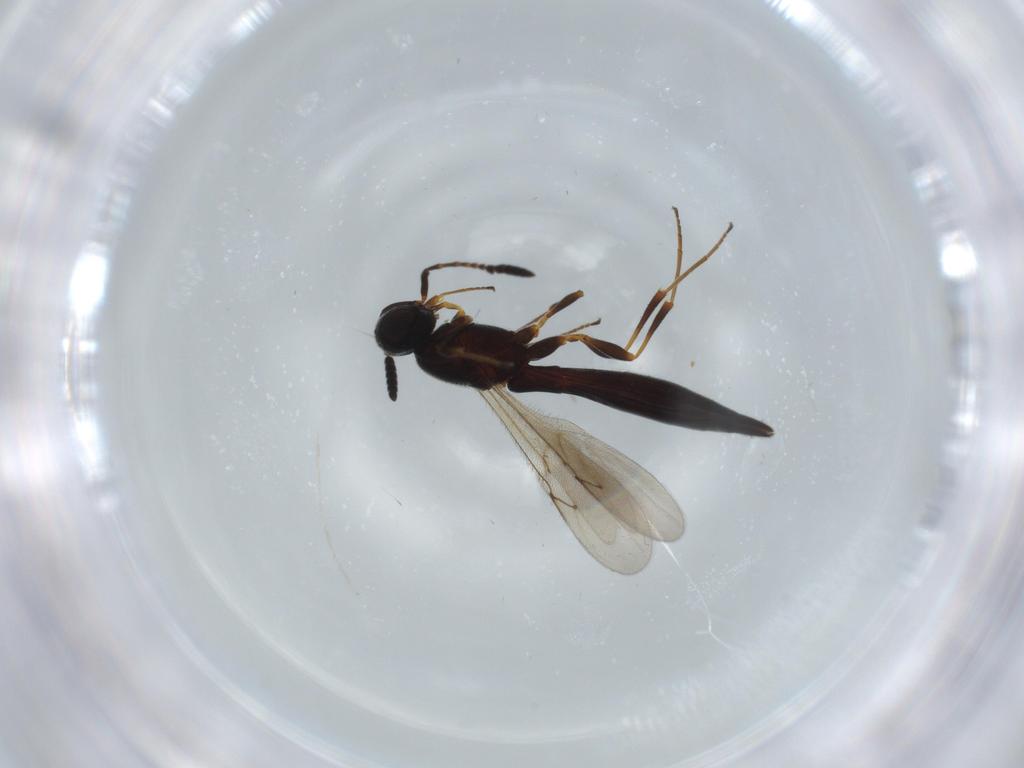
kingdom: Animalia
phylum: Arthropoda
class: Insecta
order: Hymenoptera
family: Scelionidae
